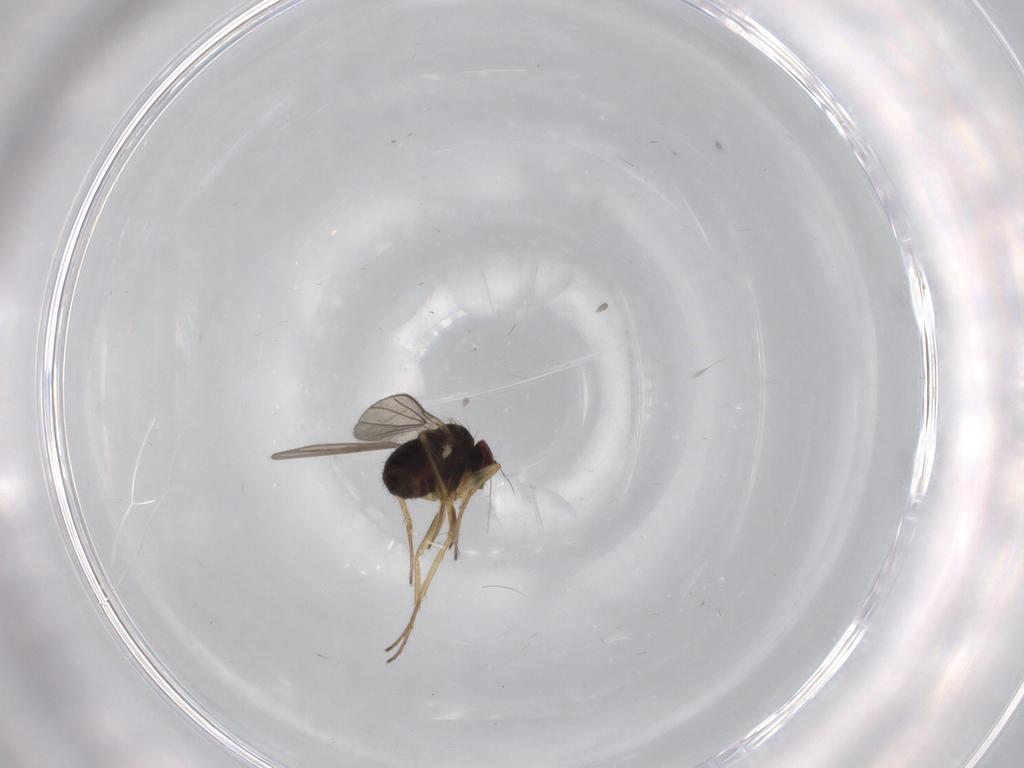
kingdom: Animalia
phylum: Arthropoda
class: Insecta
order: Diptera
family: Dolichopodidae
